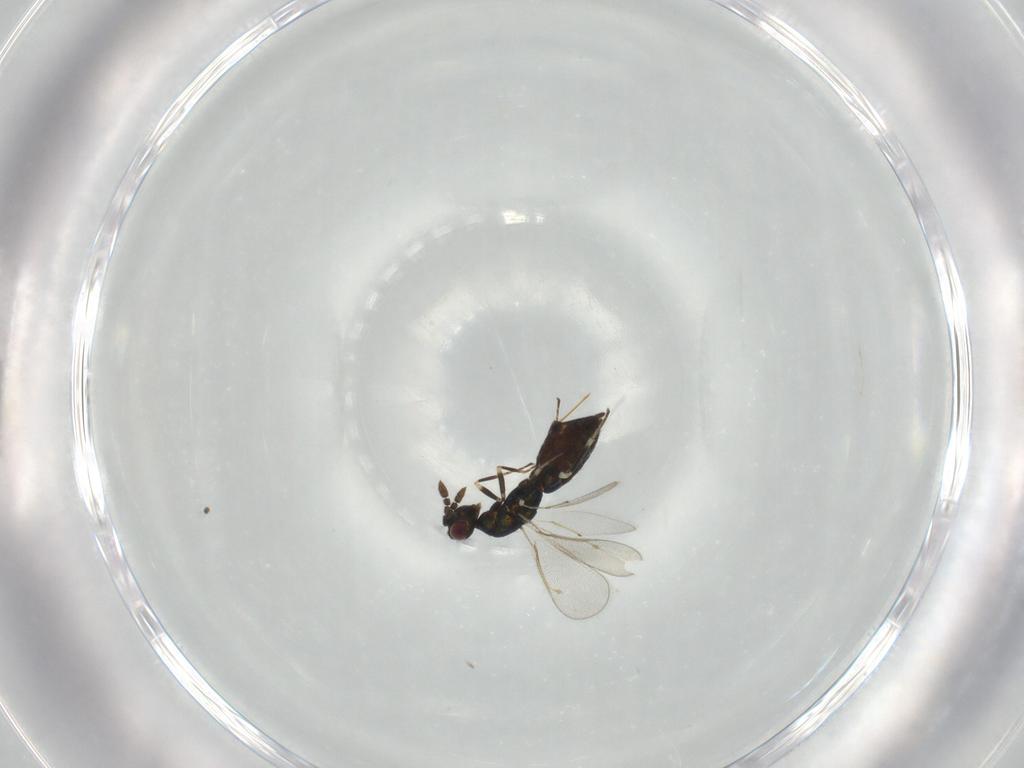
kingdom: Animalia
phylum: Arthropoda
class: Insecta
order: Hymenoptera
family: Eulophidae
